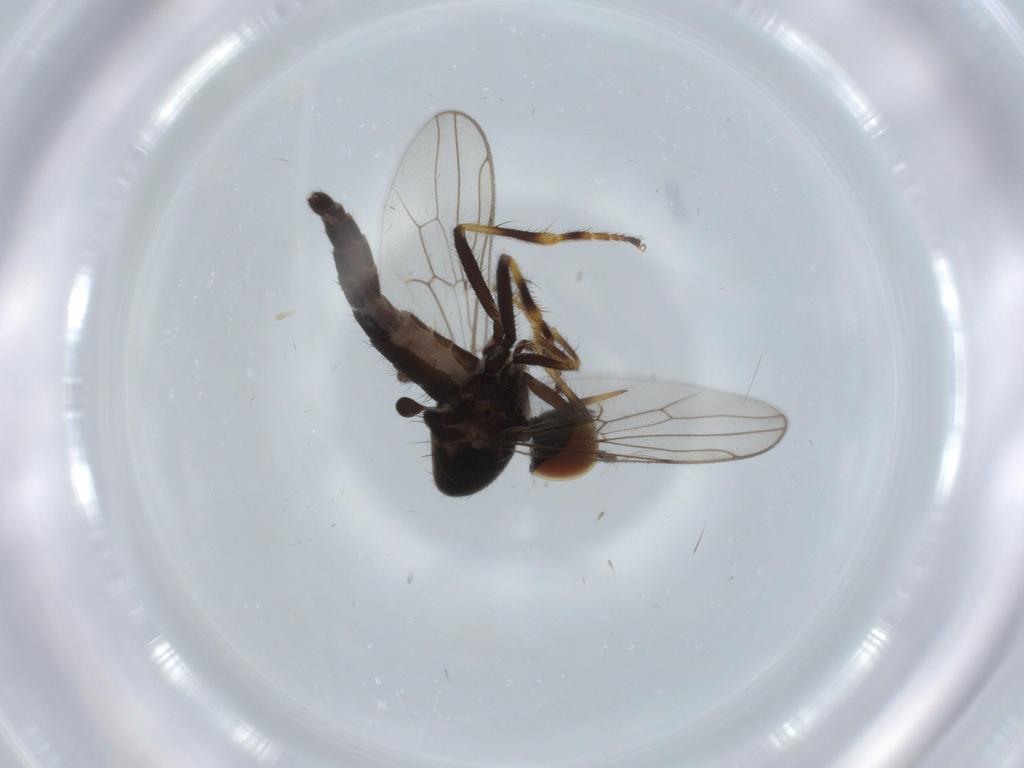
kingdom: Animalia
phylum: Arthropoda
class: Insecta
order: Diptera
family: Hybotidae
